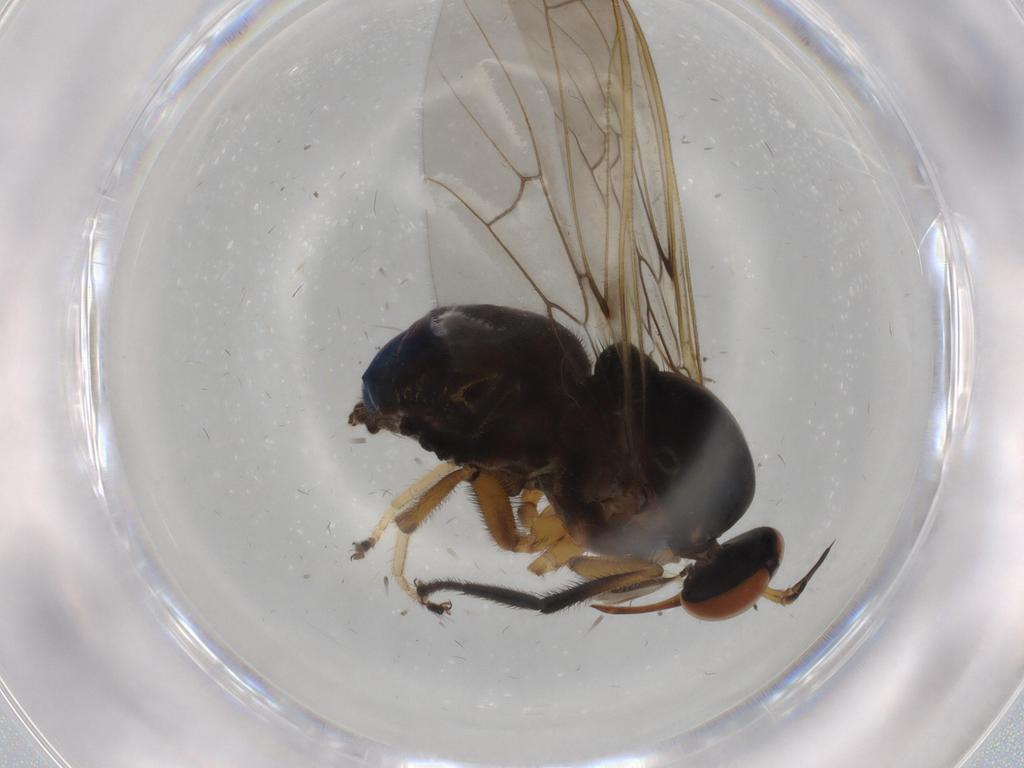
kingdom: Animalia
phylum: Arthropoda
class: Insecta
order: Diptera
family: Empididae
